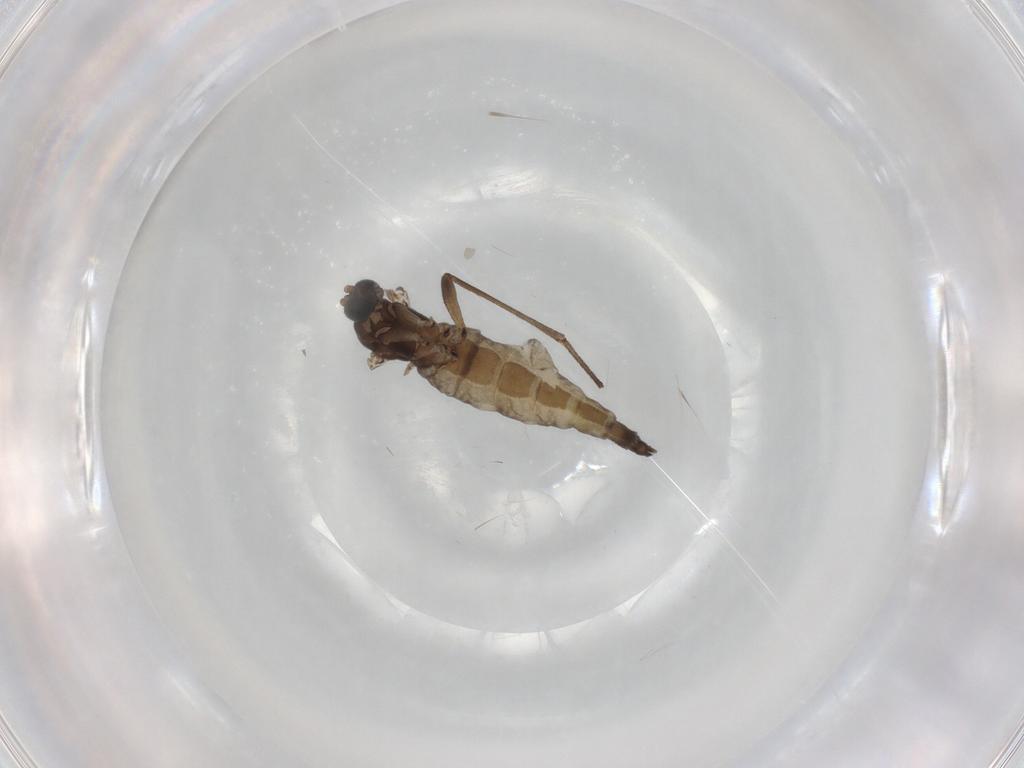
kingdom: Animalia
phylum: Arthropoda
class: Insecta
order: Diptera
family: Sciaridae
